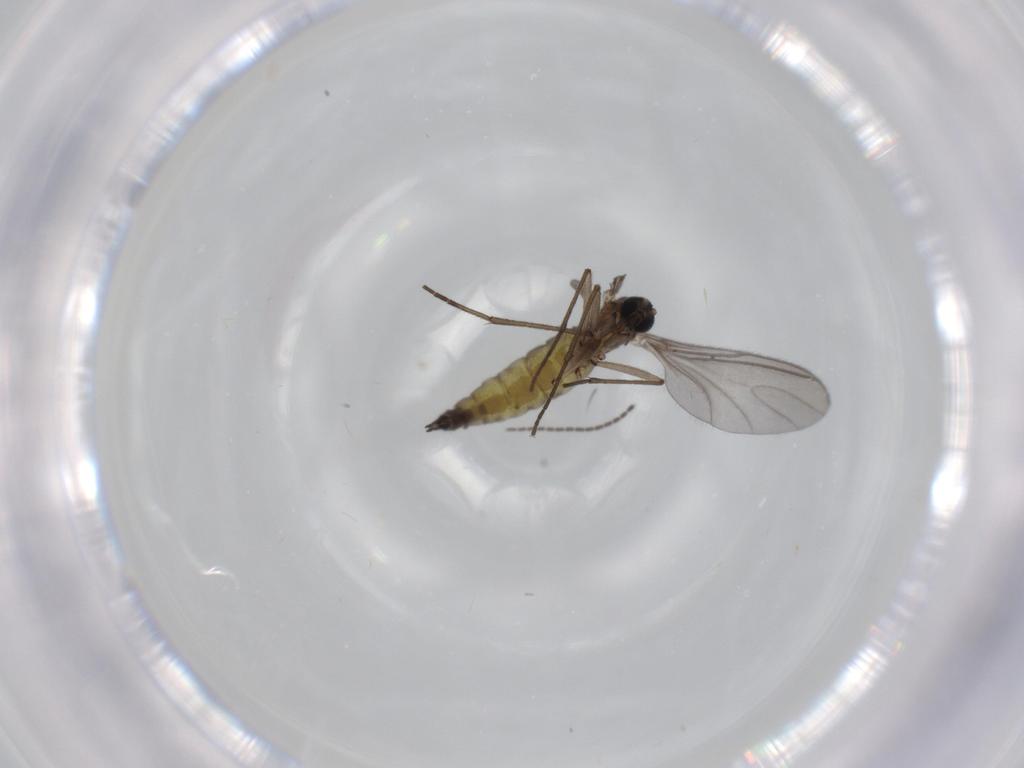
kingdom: Animalia
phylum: Arthropoda
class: Insecta
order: Diptera
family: Sciaridae
